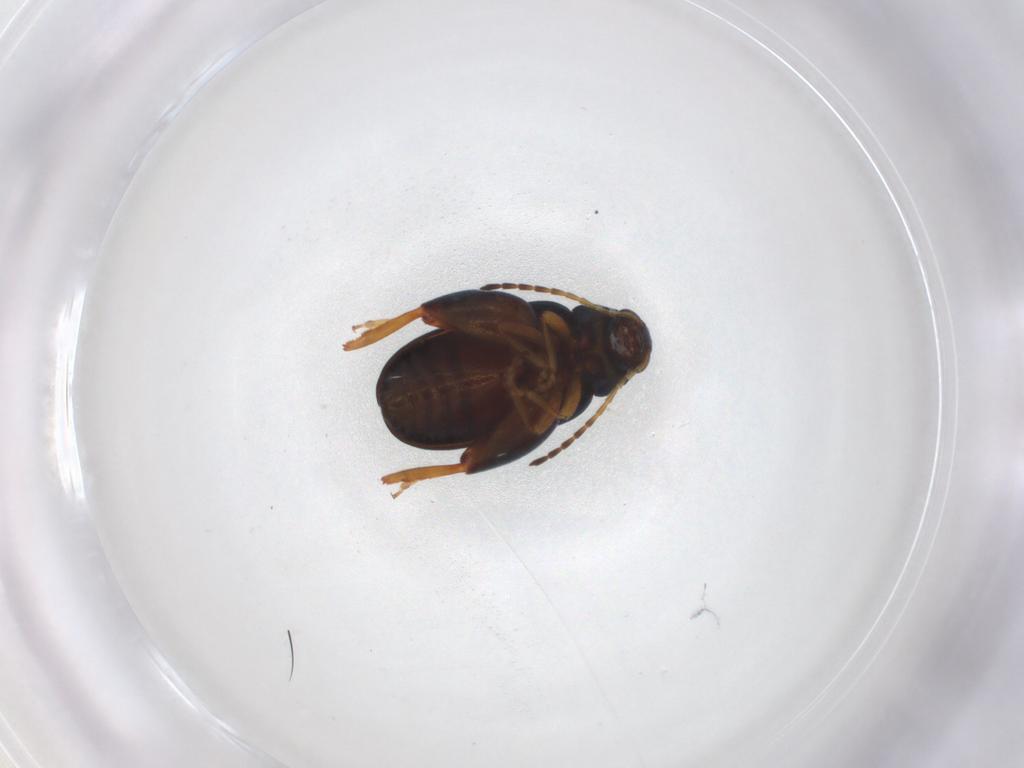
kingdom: Animalia
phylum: Arthropoda
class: Insecta
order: Coleoptera
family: Chrysomelidae
